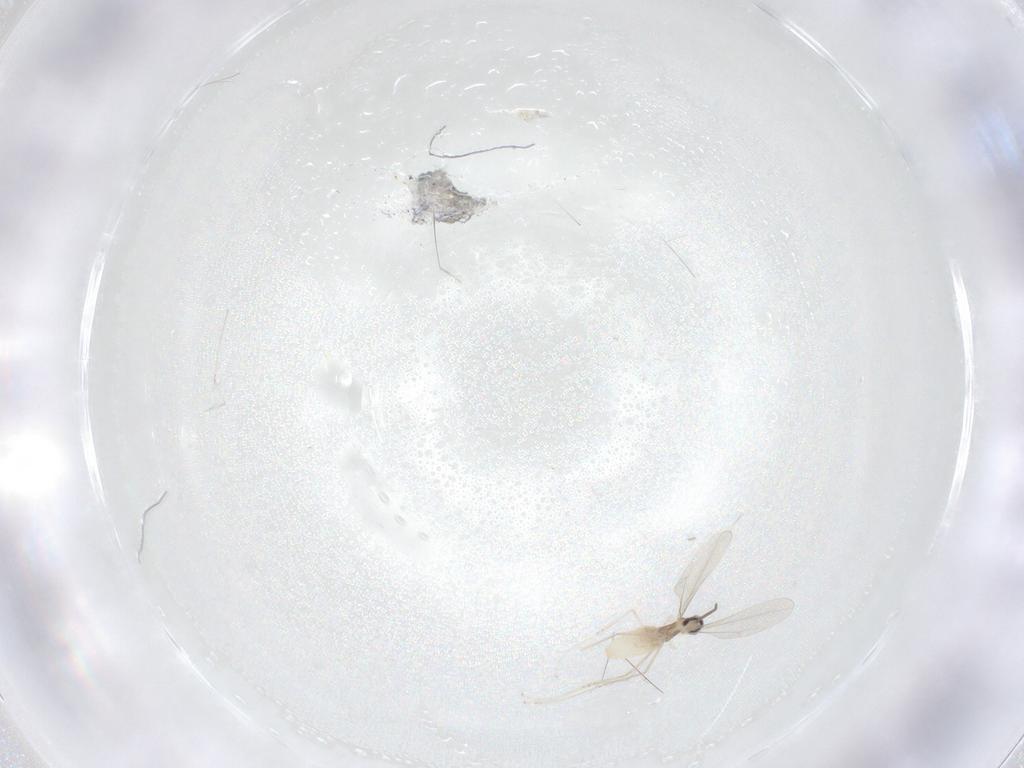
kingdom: Animalia
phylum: Arthropoda
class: Insecta
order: Diptera
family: Cecidomyiidae
